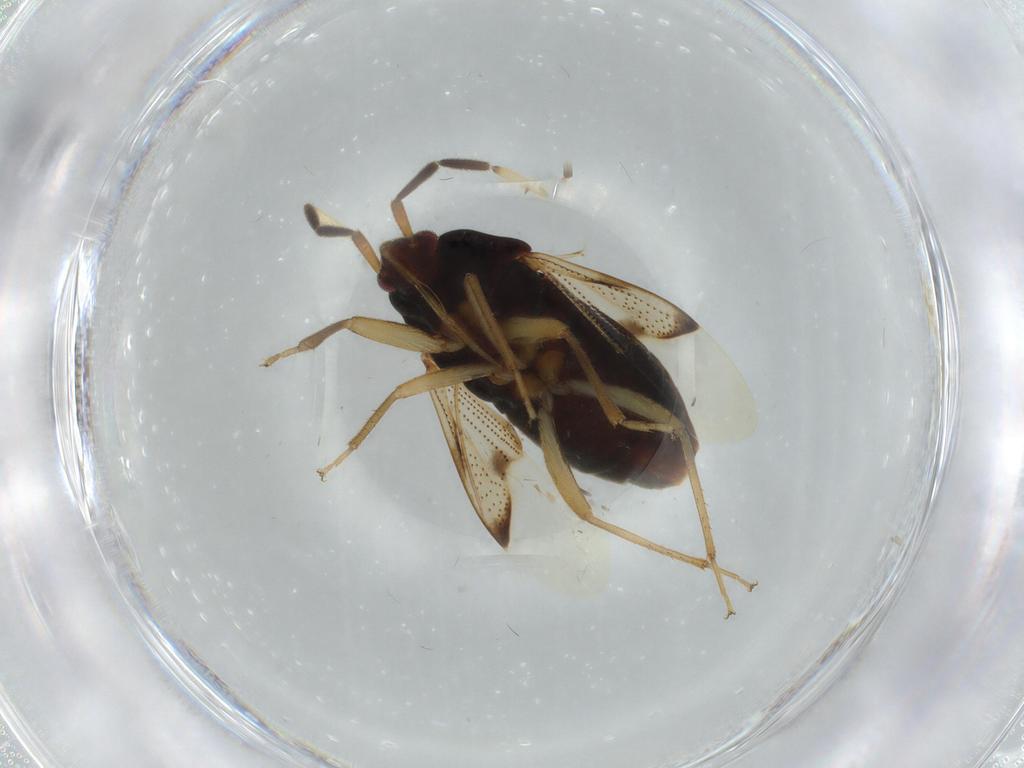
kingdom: Animalia
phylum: Arthropoda
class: Insecta
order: Hemiptera
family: Rhyparochromidae
